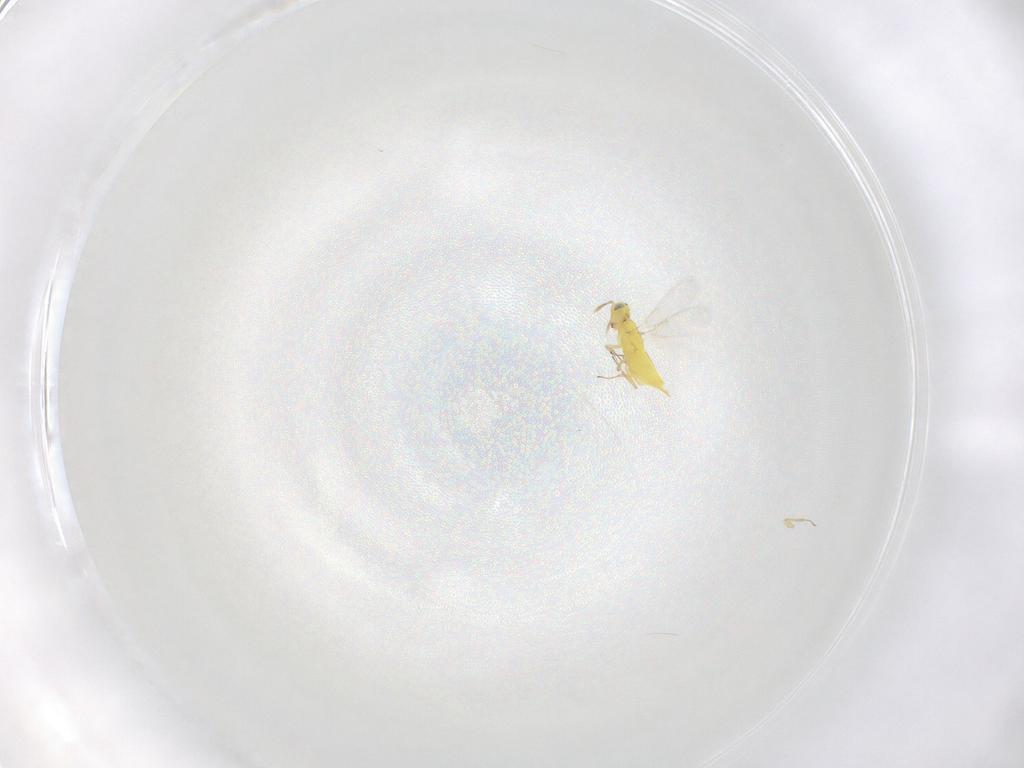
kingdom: Animalia
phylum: Arthropoda
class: Insecta
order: Hymenoptera
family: Aphelinidae
